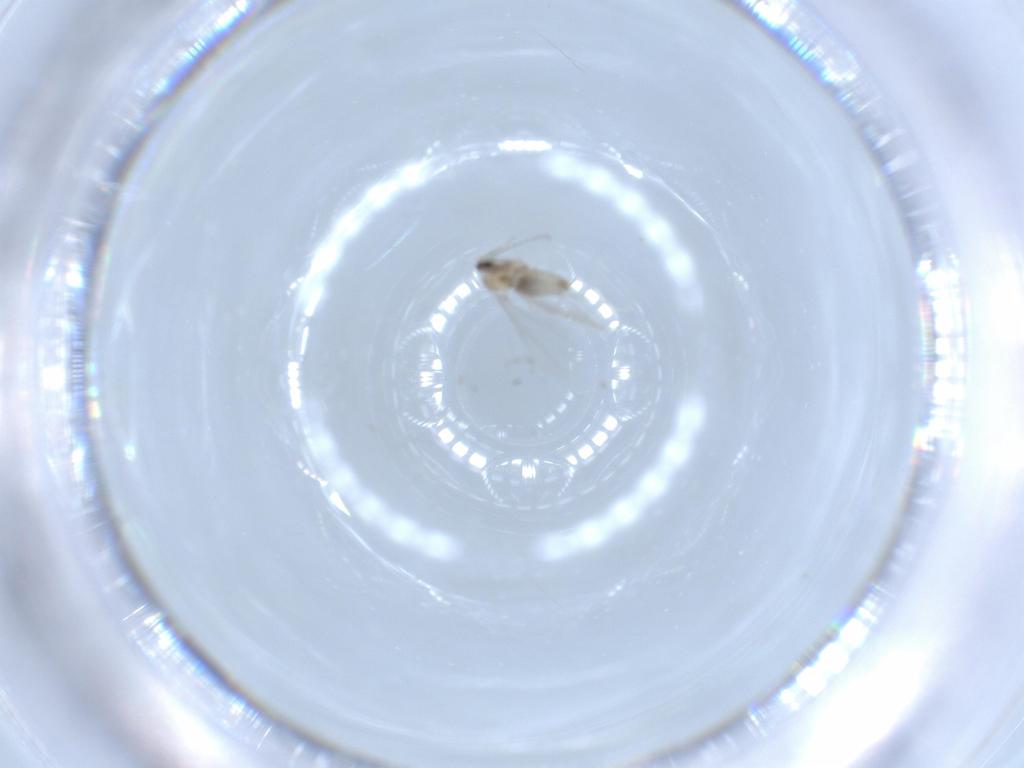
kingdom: Animalia
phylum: Arthropoda
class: Insecta
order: Diptera
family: Cecidomyiidae
